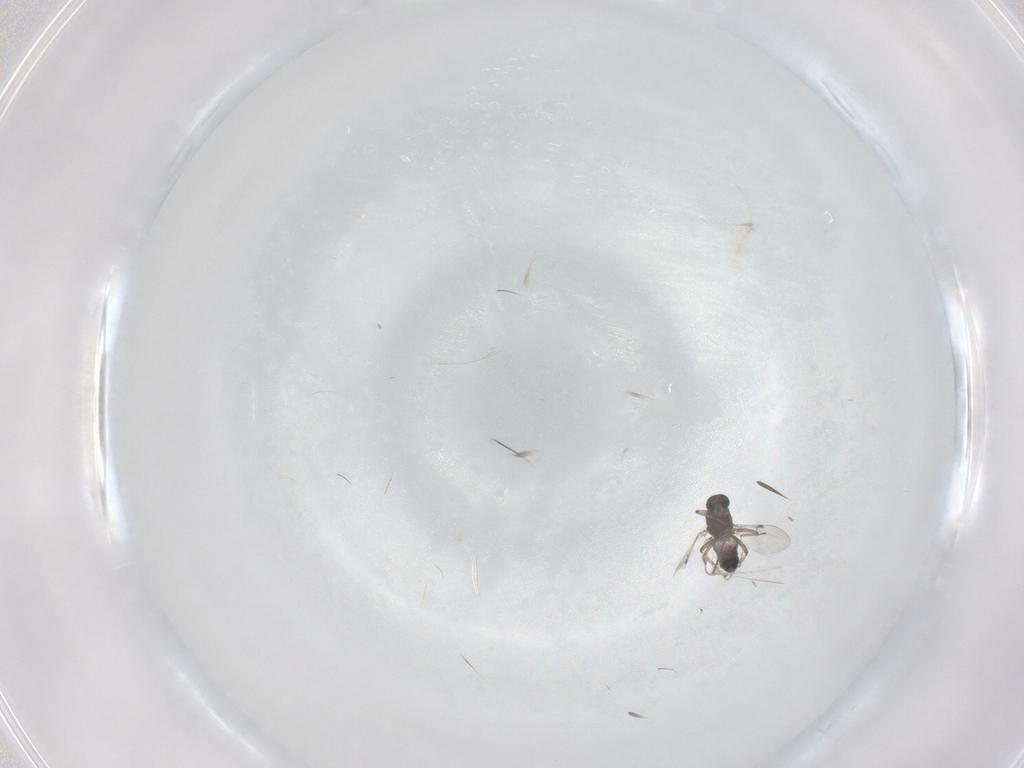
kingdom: Animalia
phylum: Arthropoda
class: Insecta
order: Diptera
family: Ceratopogonidae
